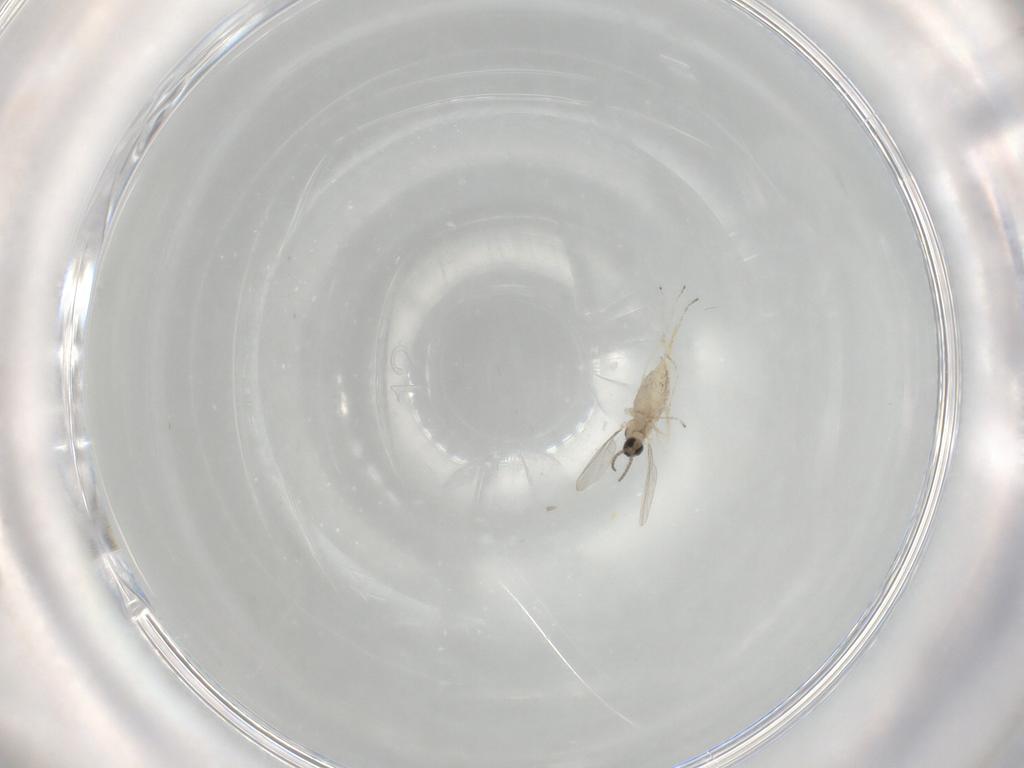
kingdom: Animalia
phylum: Arthropoda
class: Insecta
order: Diptera
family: Cecidomyiidae
